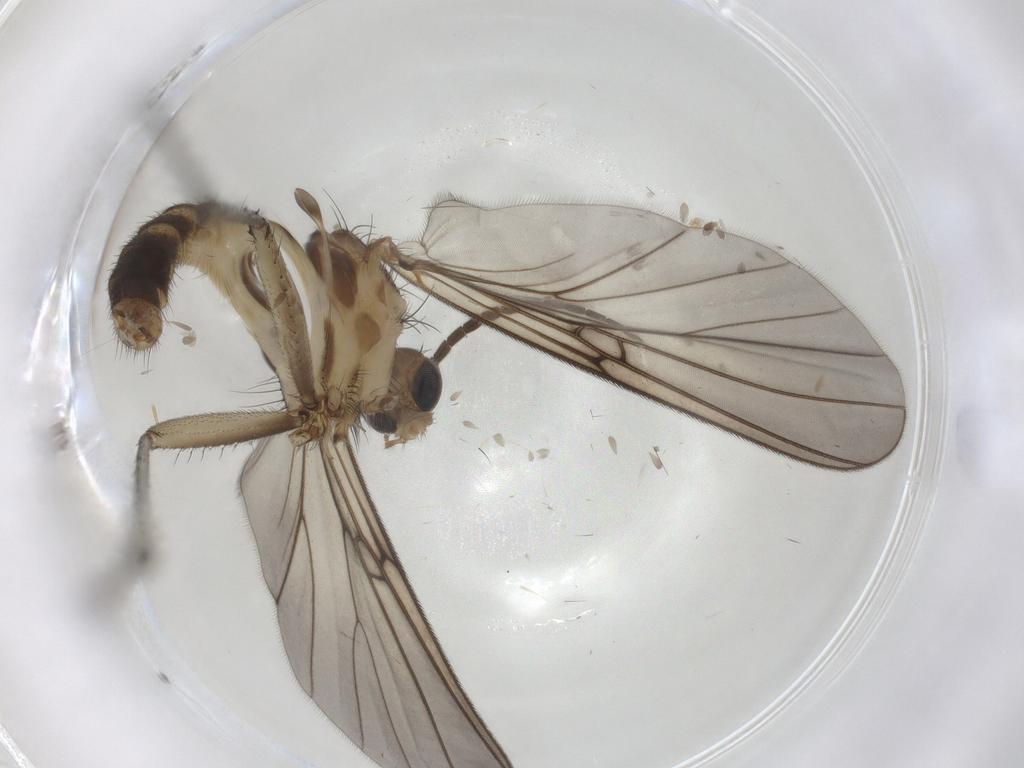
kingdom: Animalia
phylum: Arthropoda
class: Insecta
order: Diptera
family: Mycetophilidae
